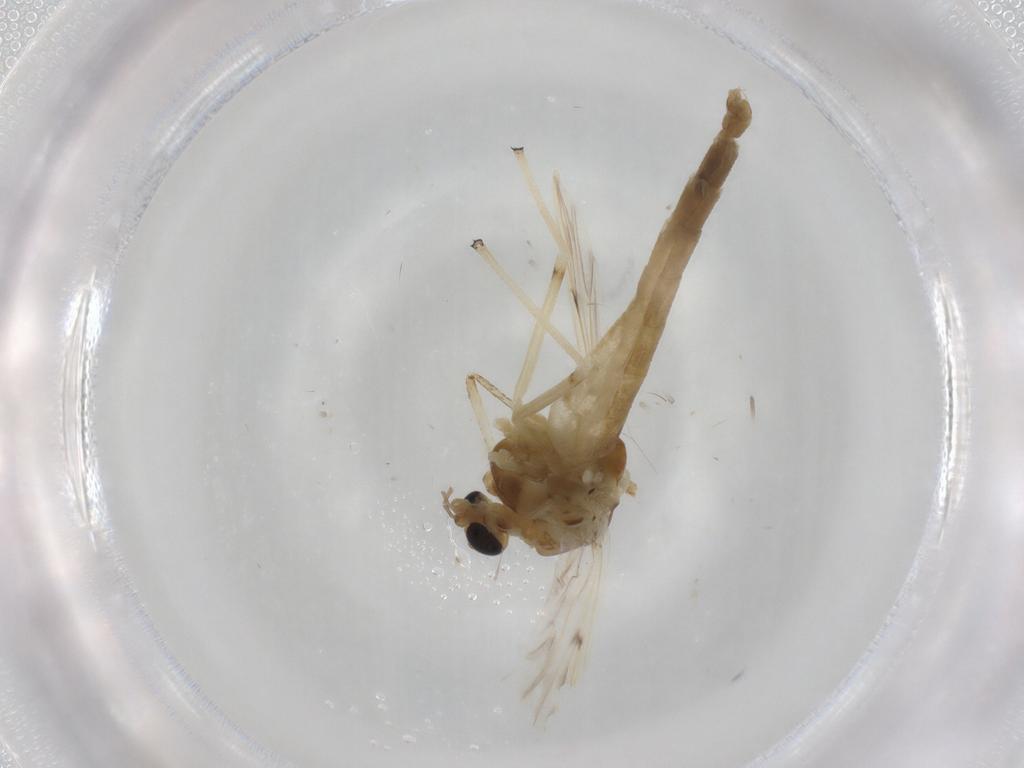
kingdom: Animalia
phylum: Arthropoda
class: Insecta
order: Diptera
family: Chironomidae
